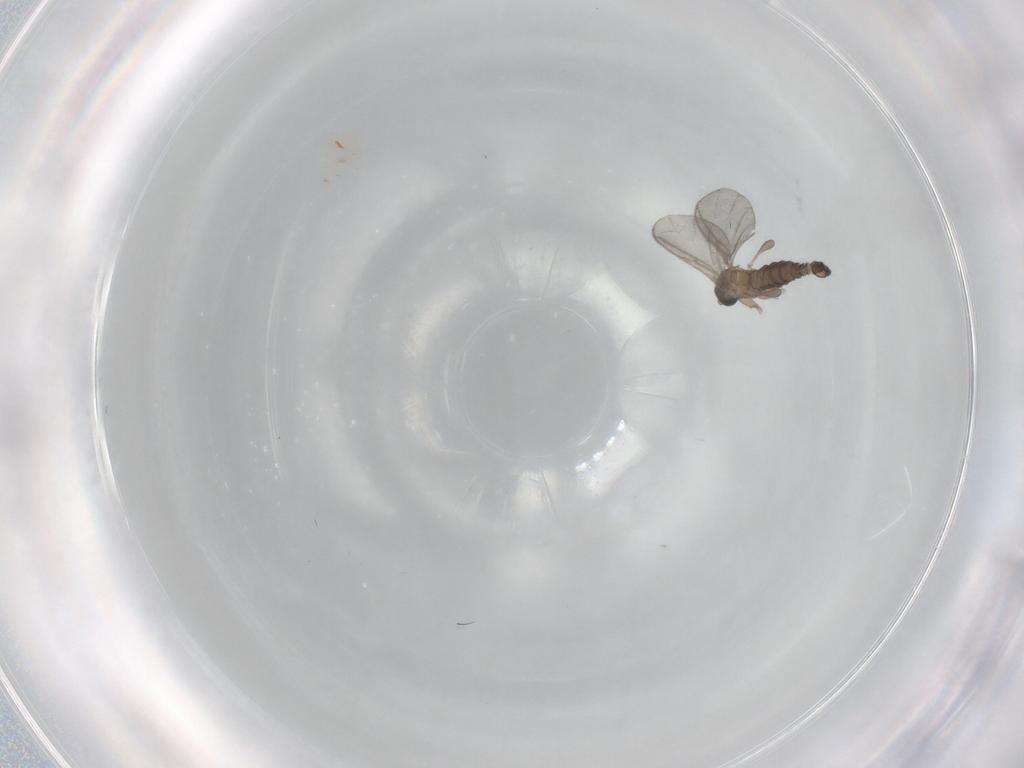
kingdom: Animalia
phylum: Arthropoda
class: Insecta
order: Diptera
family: Sciaridae
